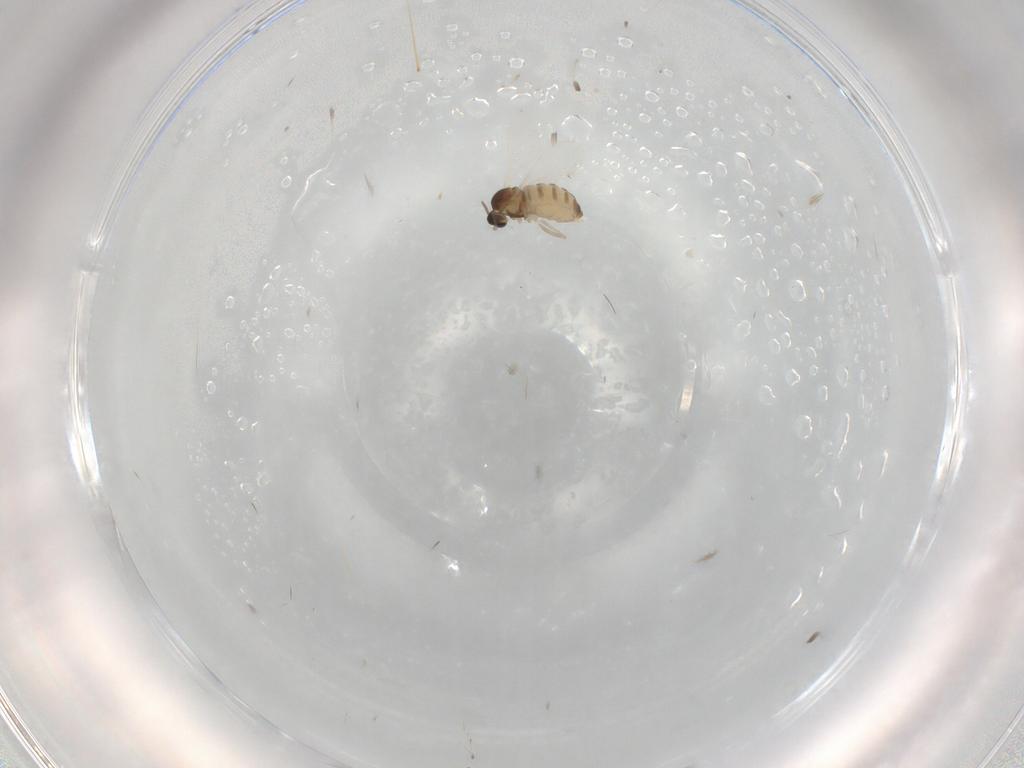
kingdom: Animalia
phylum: Arthropoda
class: Insecta
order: Diptera
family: Cecidomyiidae
